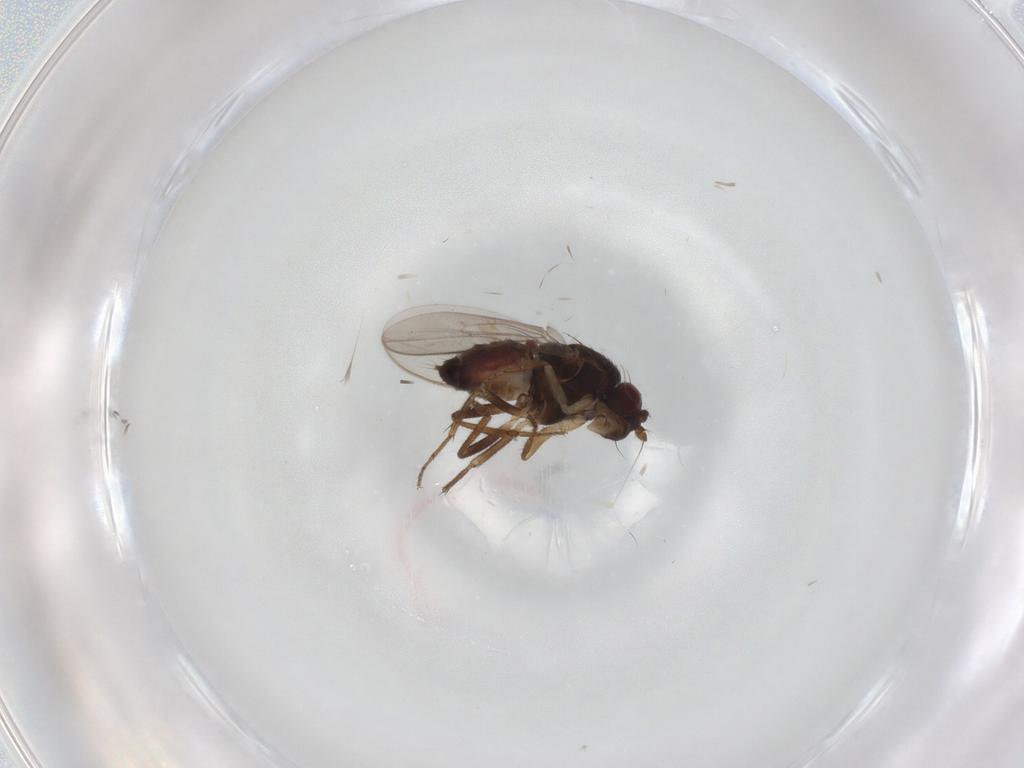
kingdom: Animalia
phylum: Arthropoda
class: Insecta
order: Diptera
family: Sphaeroceridae
